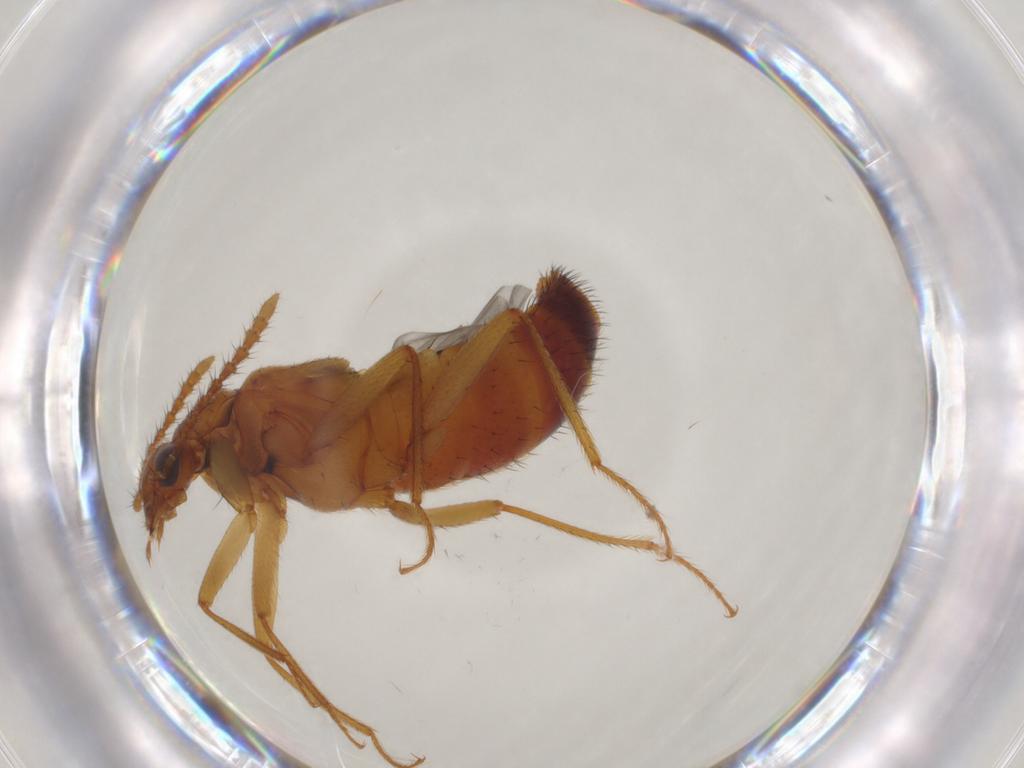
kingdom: Animalia
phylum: Arthropoda
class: Insecta
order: Coleoptera
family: Staphylinidae
